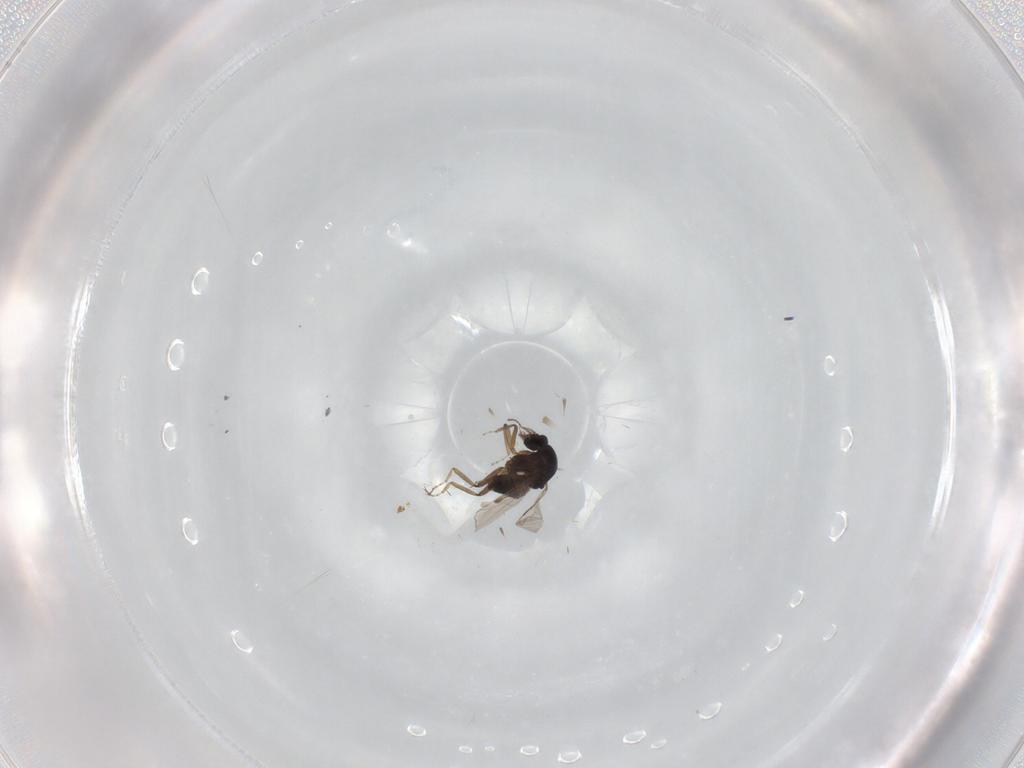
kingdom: Animalia
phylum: Arthropoda
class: Insecta
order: Diptera
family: Ceratopogonidae
